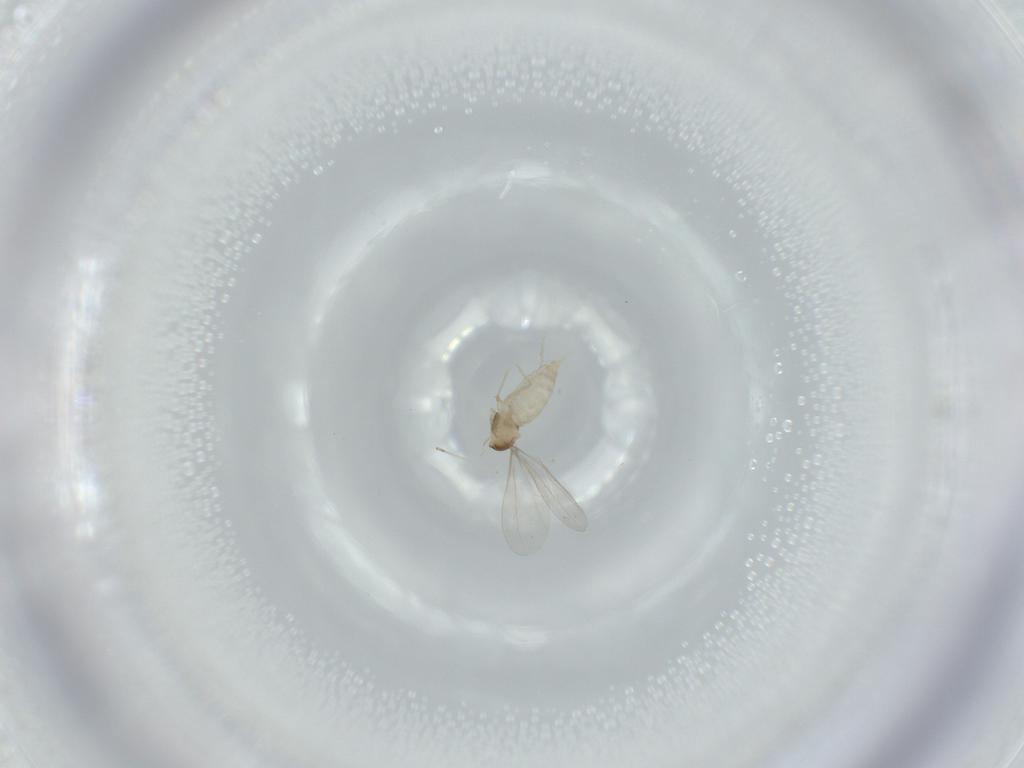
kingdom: Animalia
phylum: Arthropoda
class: Insecta
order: Diptera
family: Cecidomyiidae
